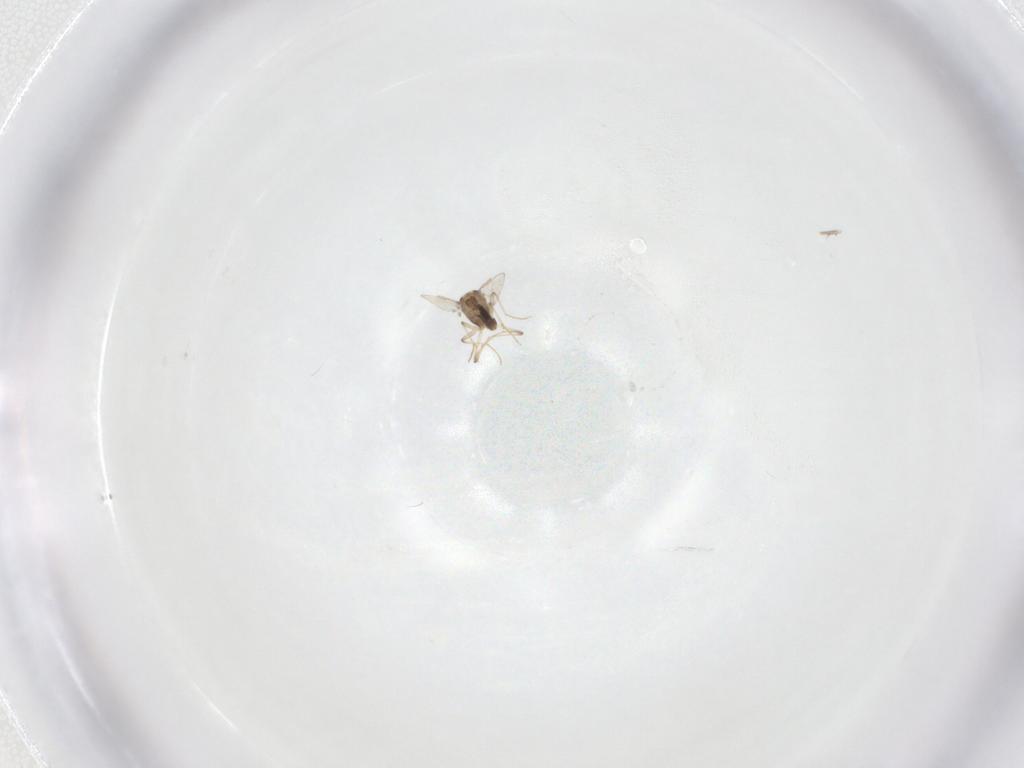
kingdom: Animalia
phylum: Arthropoda
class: Insecta
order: Diptera
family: Chironomidae
